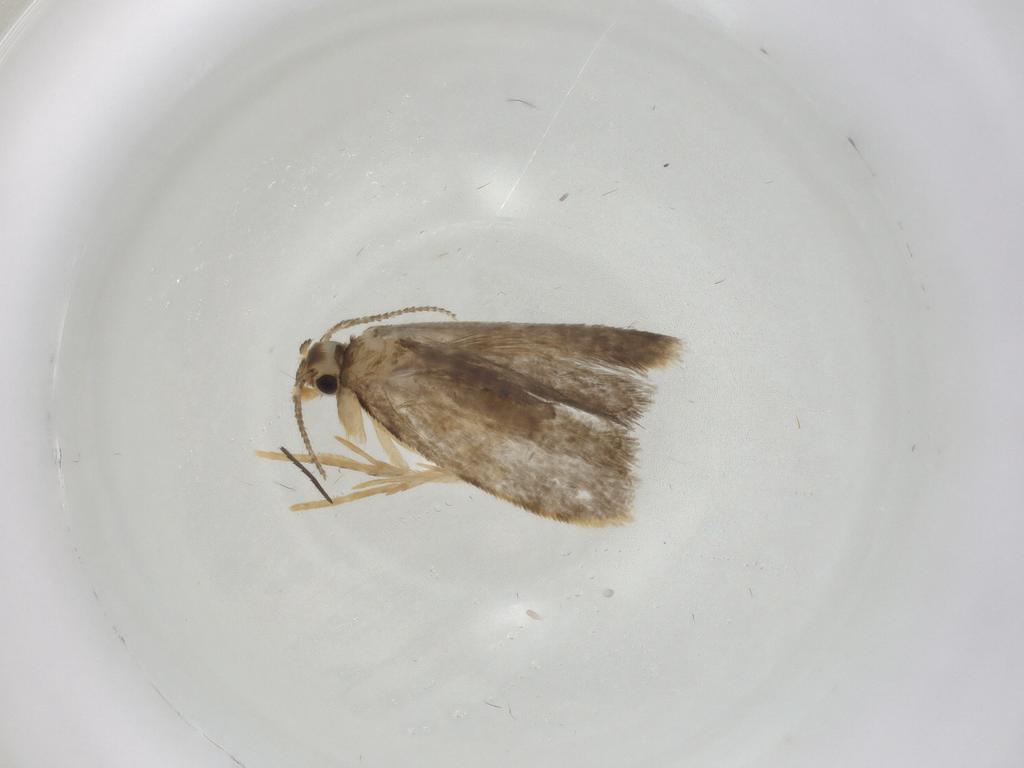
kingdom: Animalia
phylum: Arthropoda
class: Insecta
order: Lepidoptera
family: Psychidae
